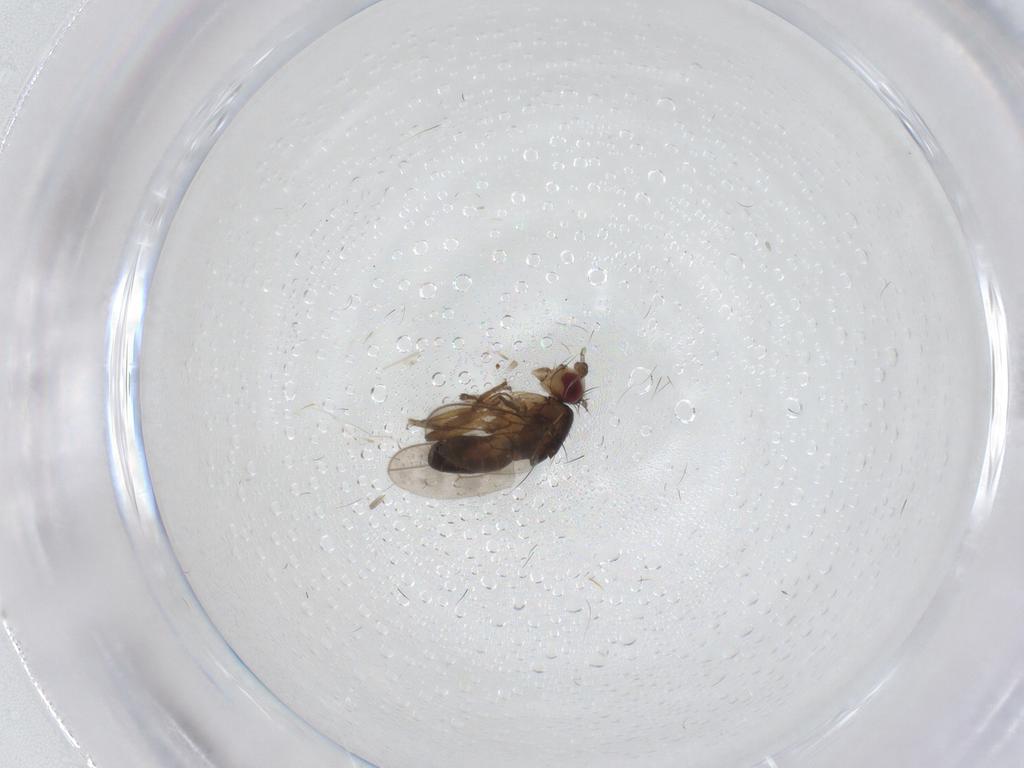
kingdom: Animalia
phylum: Arthropoda
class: Insecta
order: Diptera
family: Sphaeroceridae
